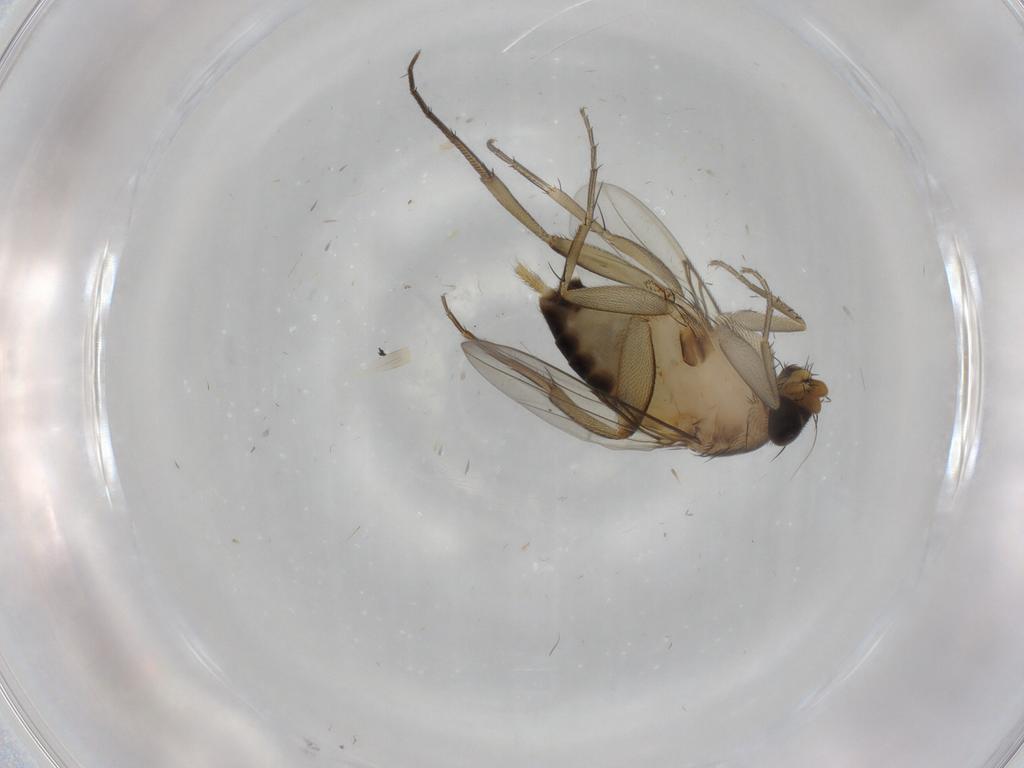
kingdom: Animalia
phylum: Arthropoda
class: Insecta
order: Diptera
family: Phoridae
